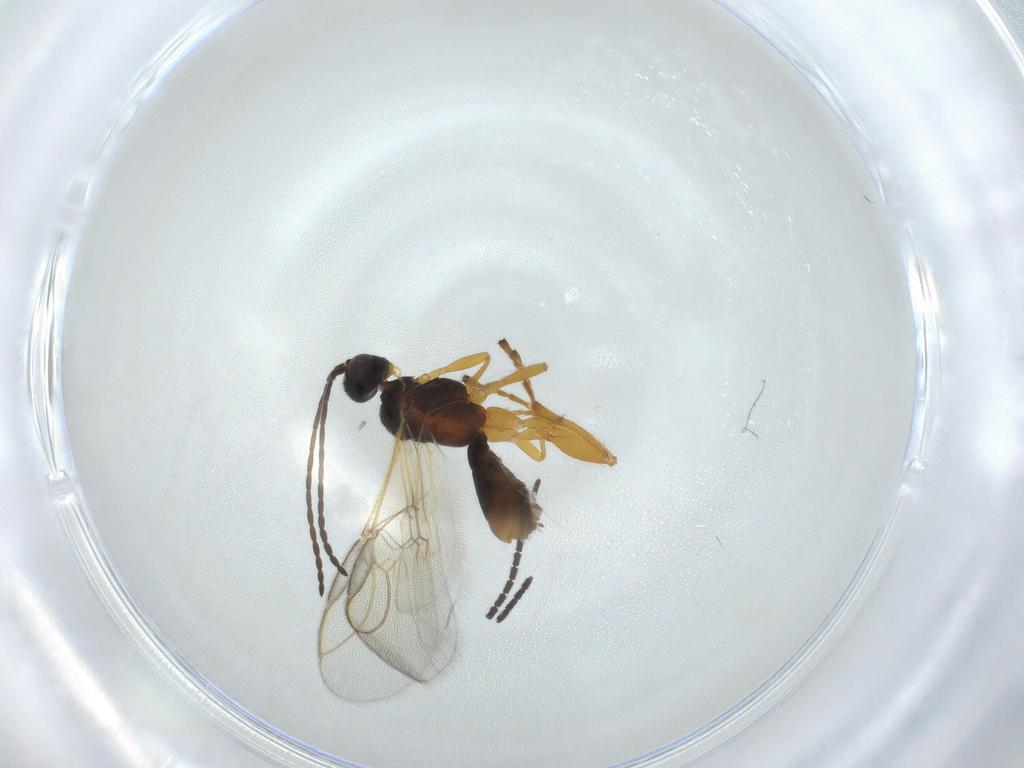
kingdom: Animalia
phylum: Arthropoda
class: Insecta
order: Hymenoptera
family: Braconidae
